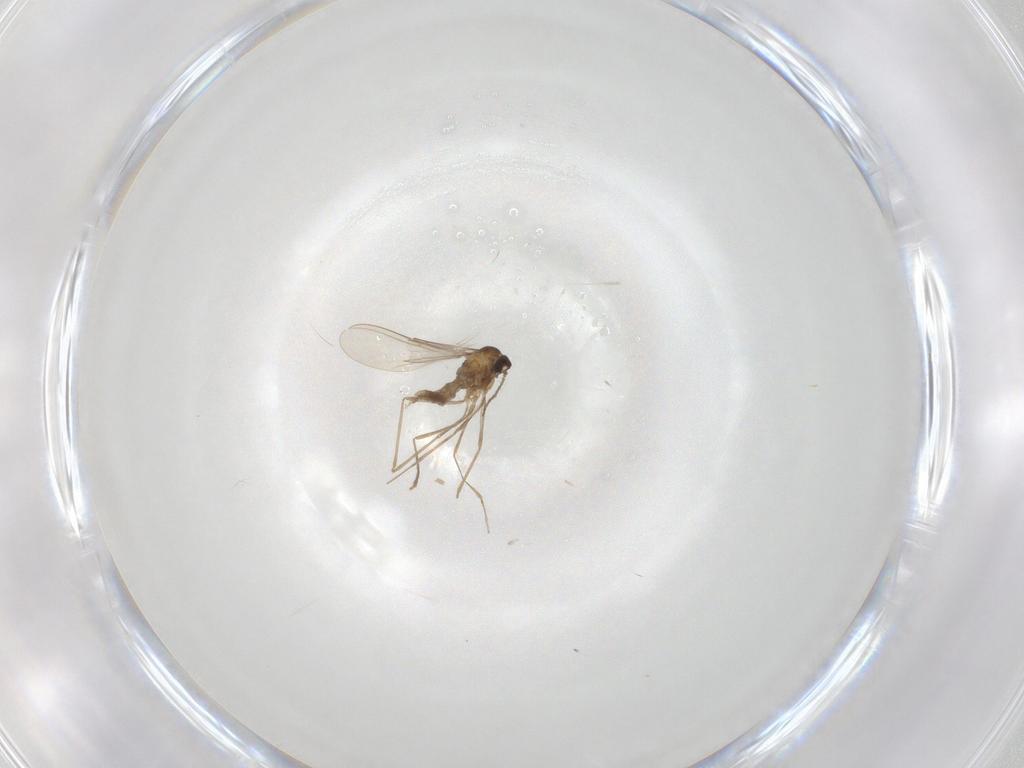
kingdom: Animalia
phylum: Arthropoda
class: Insecta
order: Diptera
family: Cecidomyiidae
